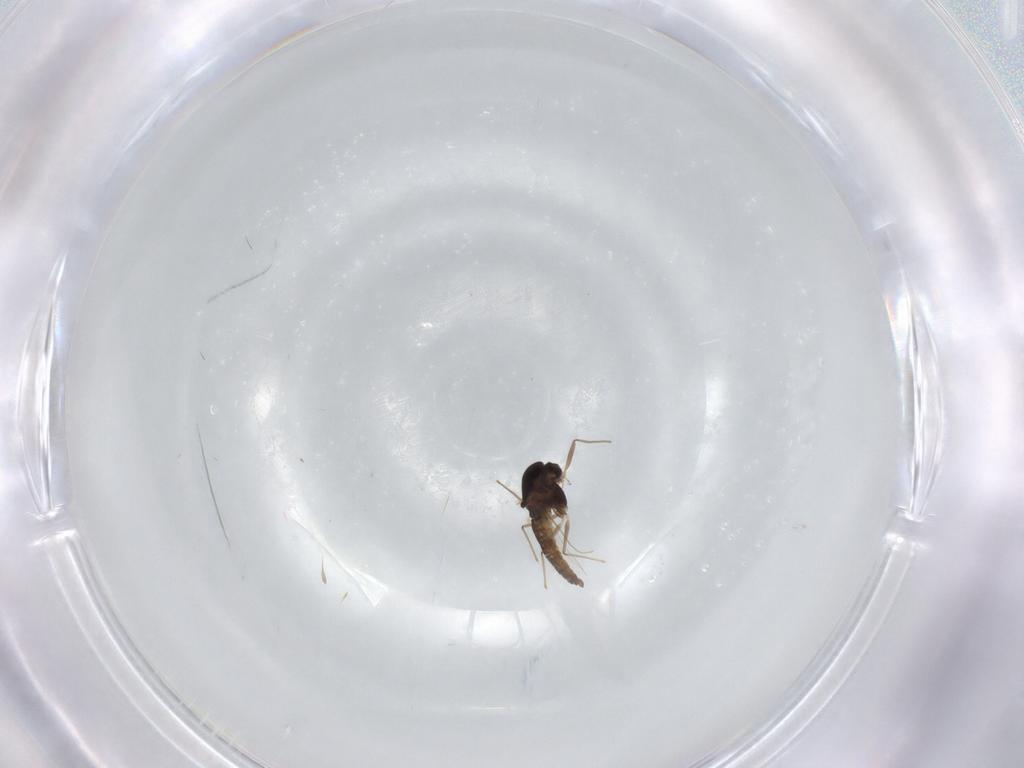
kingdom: Animalia
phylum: Arthropoda
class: Insecta
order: Diptera
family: Chironomidae
